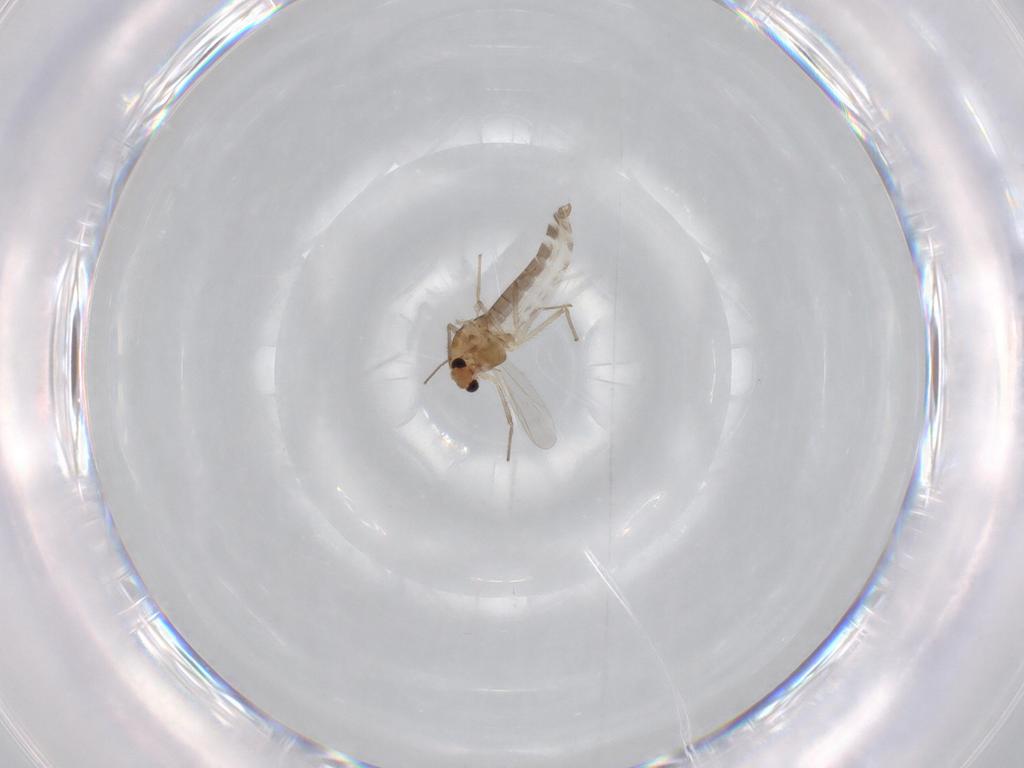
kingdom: Animalia
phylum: Arthropoda
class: Insecta
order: Diptera
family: Chironomidae
